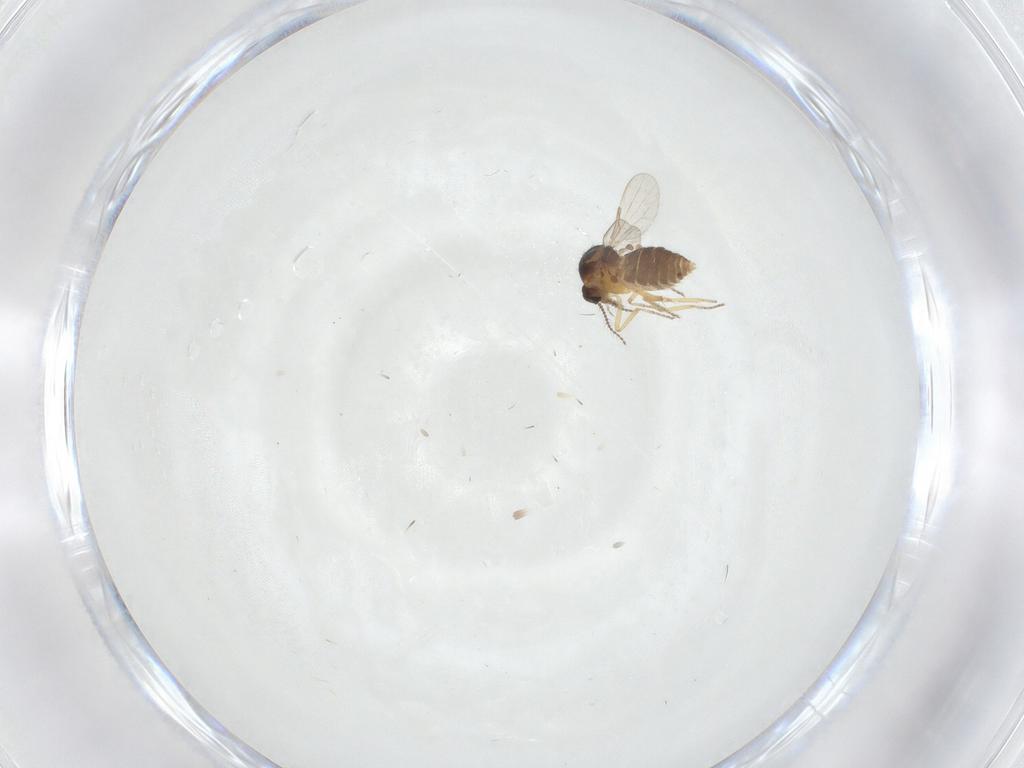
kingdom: Animalia
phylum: Arthropoda
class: Insecta
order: Diptera
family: Ceratopogonidae
